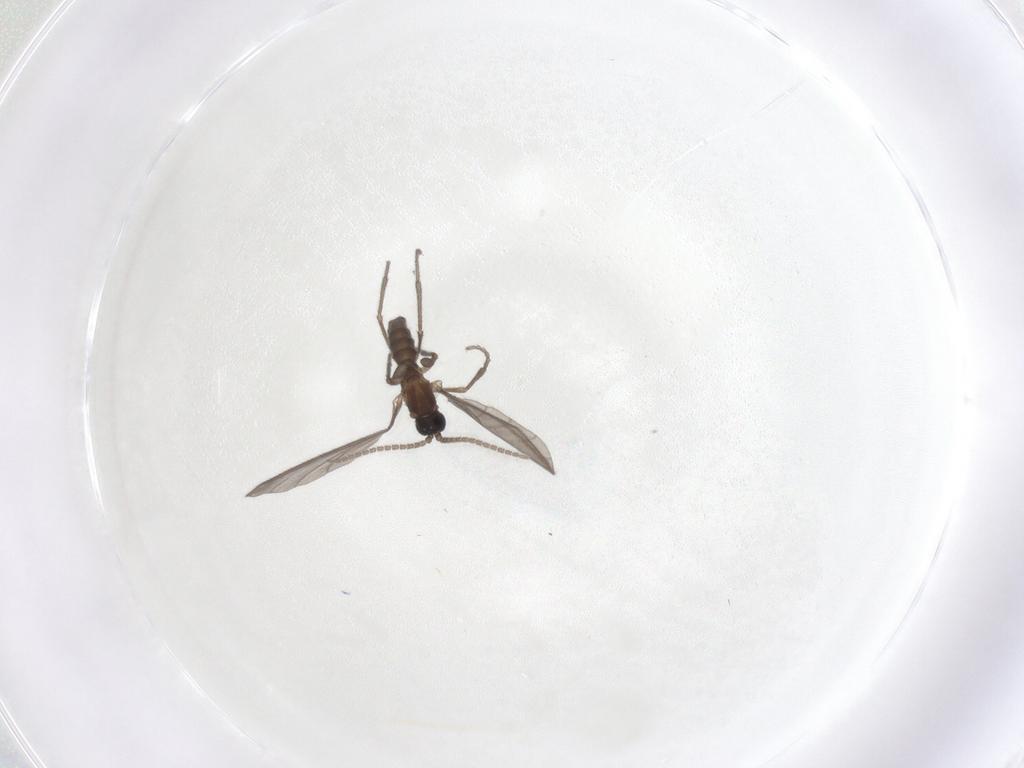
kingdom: Animalia
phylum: Arthropoda
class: Insecta
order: Diptera
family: Sciaridae
